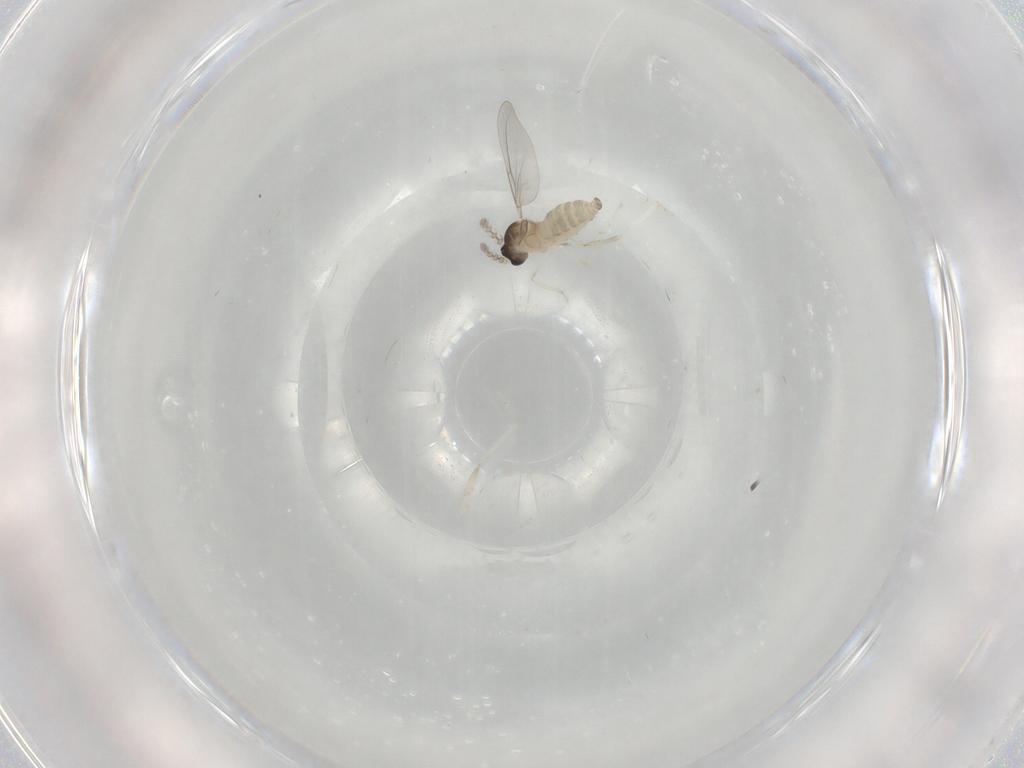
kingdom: Animalia
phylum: Arthropoda
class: Insecta
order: Diptera
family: Cecidomyiidae
